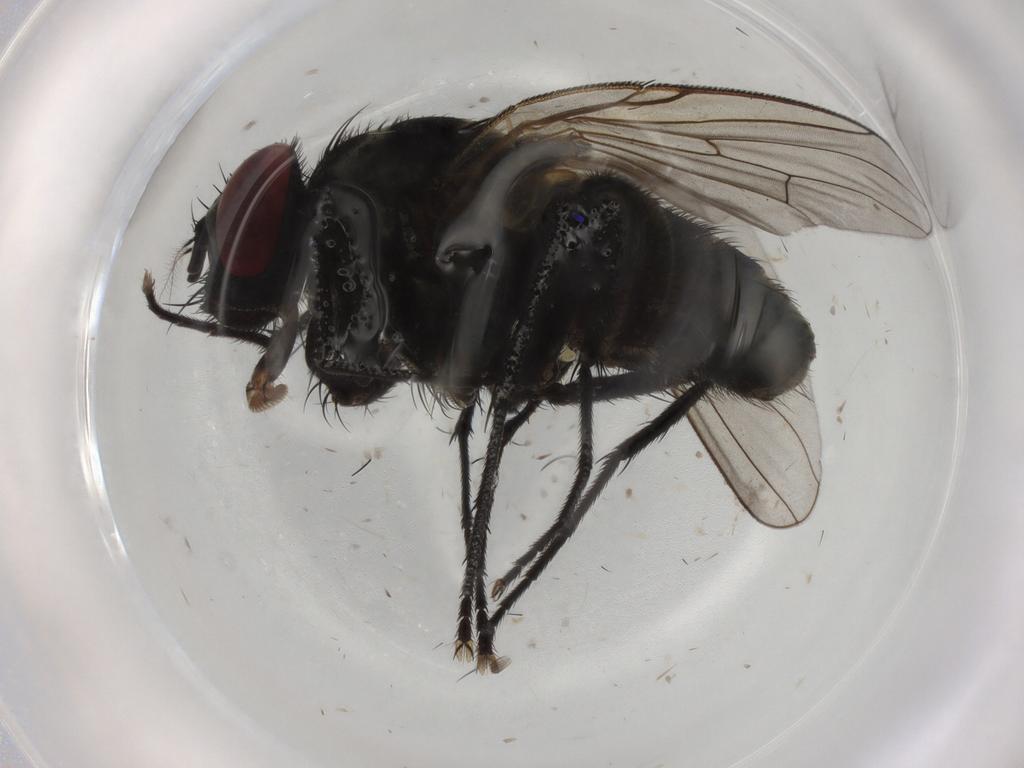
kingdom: Animalia
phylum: Arthropoda
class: Insecta
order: Diptera
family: Muscidae
